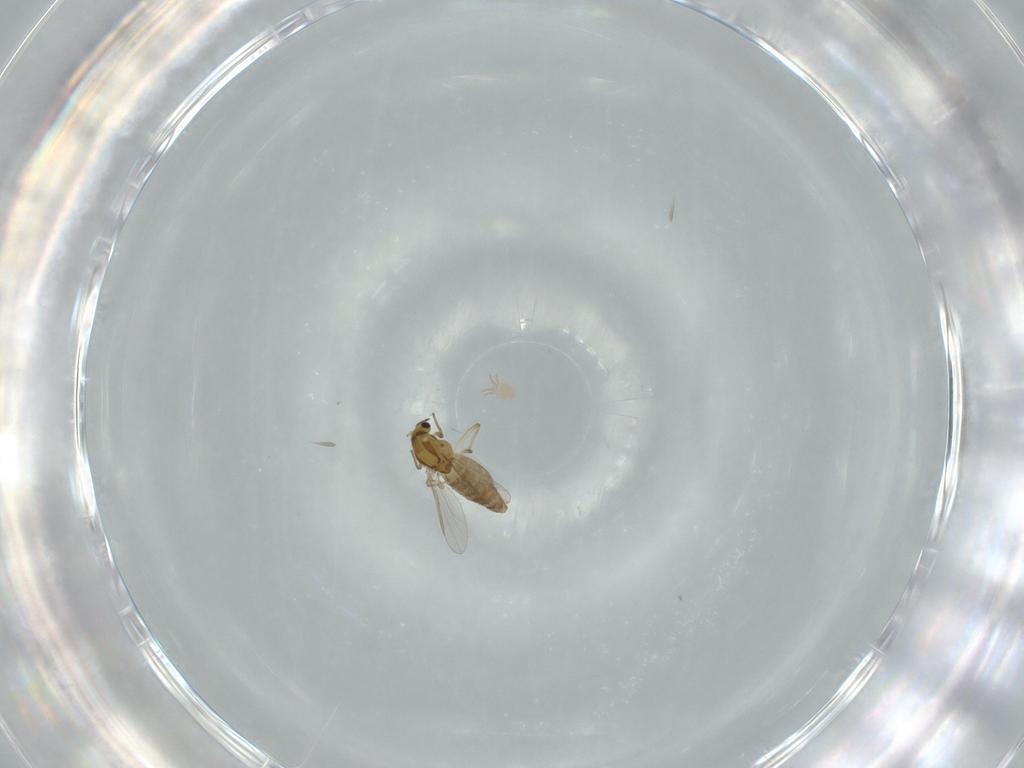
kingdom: Animalia
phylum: Arthropoda
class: Insecta
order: Diptera
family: Chironomidae
